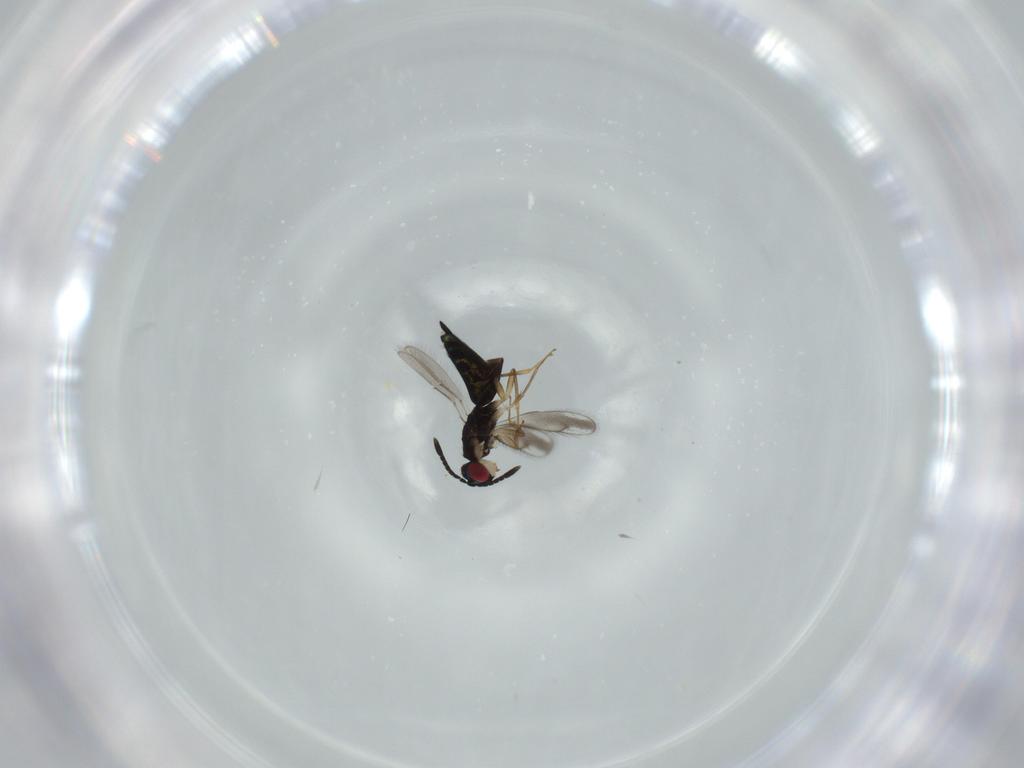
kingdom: Animalia
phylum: Arthropoda
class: Insecta
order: Hymenoptera
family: Pteromalidae
